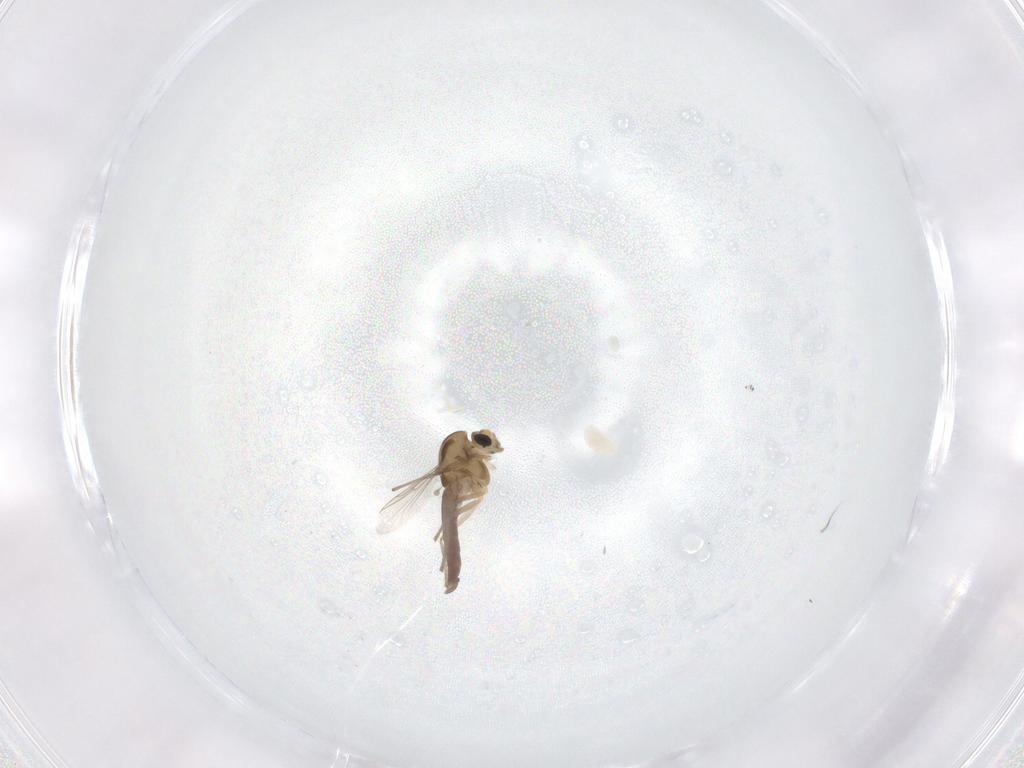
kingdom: Animalia
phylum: Arthropoda
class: Insecta
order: Diptera
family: Chironomidae
